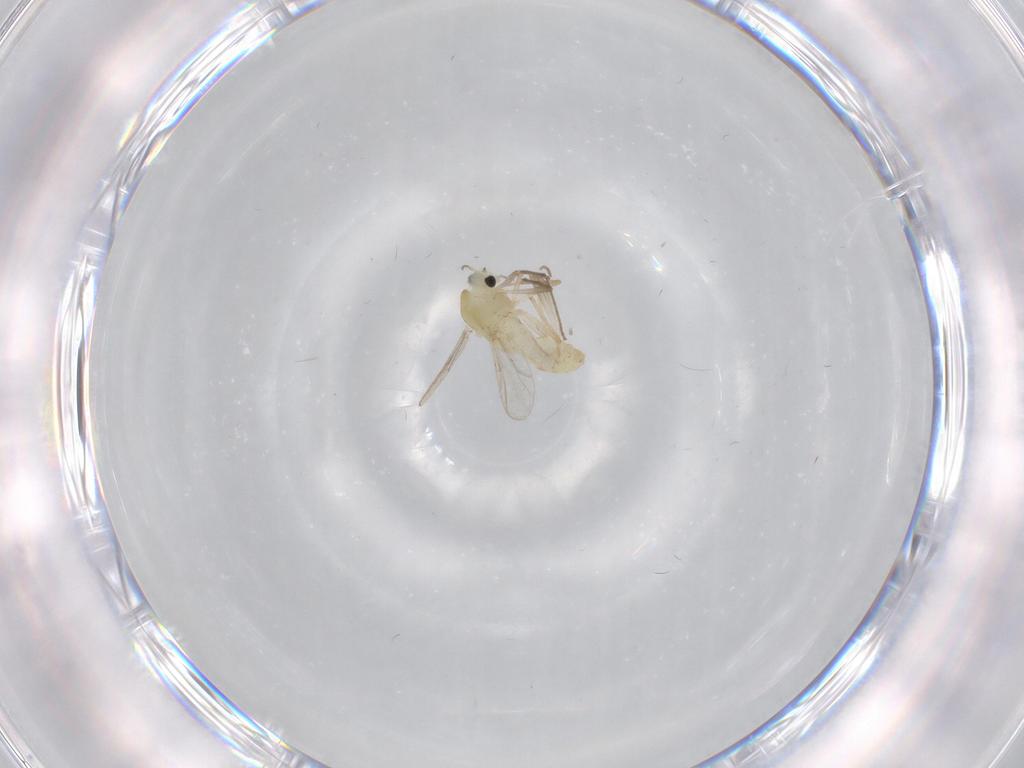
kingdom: Animalia
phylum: Arthropoda
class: Insecta
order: Diptera
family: Chironomidae
